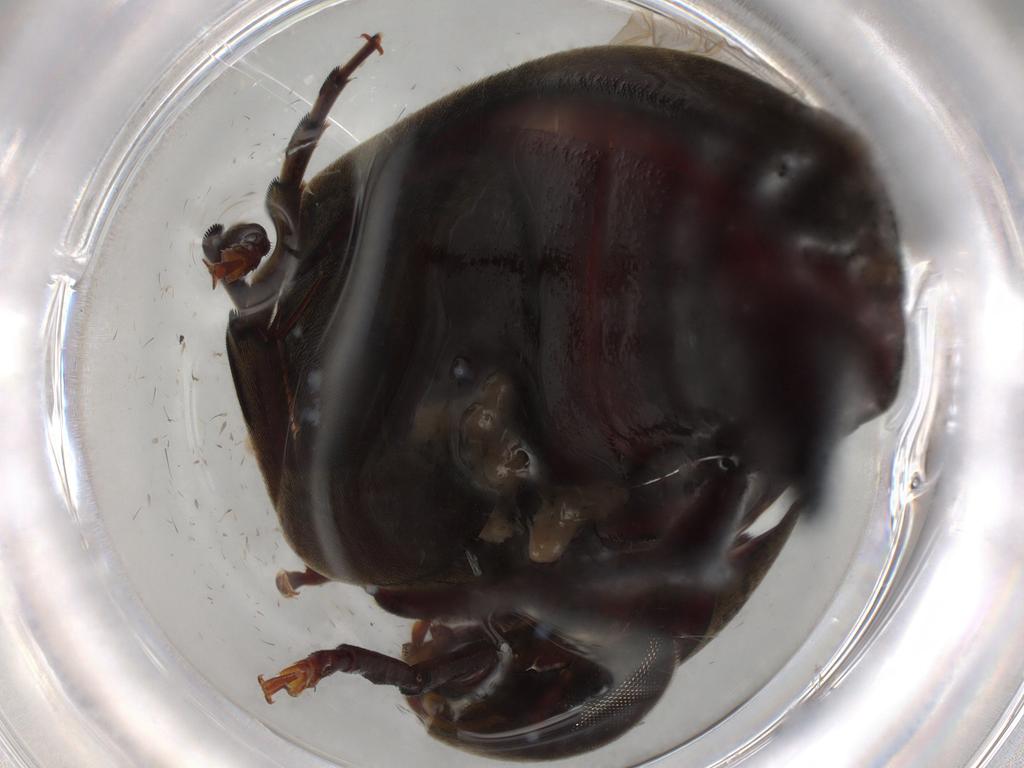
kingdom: Animalia
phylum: Arthropoda
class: Insecta
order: Coleoptera
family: Mordellidae
